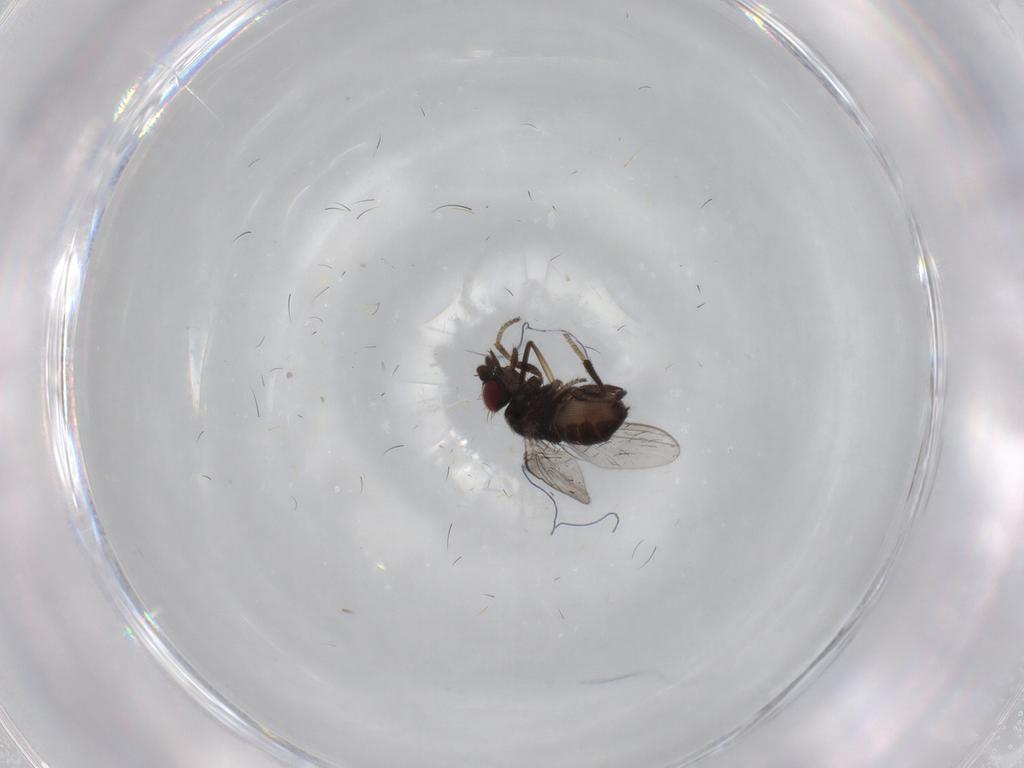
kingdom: Animalia
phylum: Arthropoda
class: Insecta
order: Diptera
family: Milichiidae
